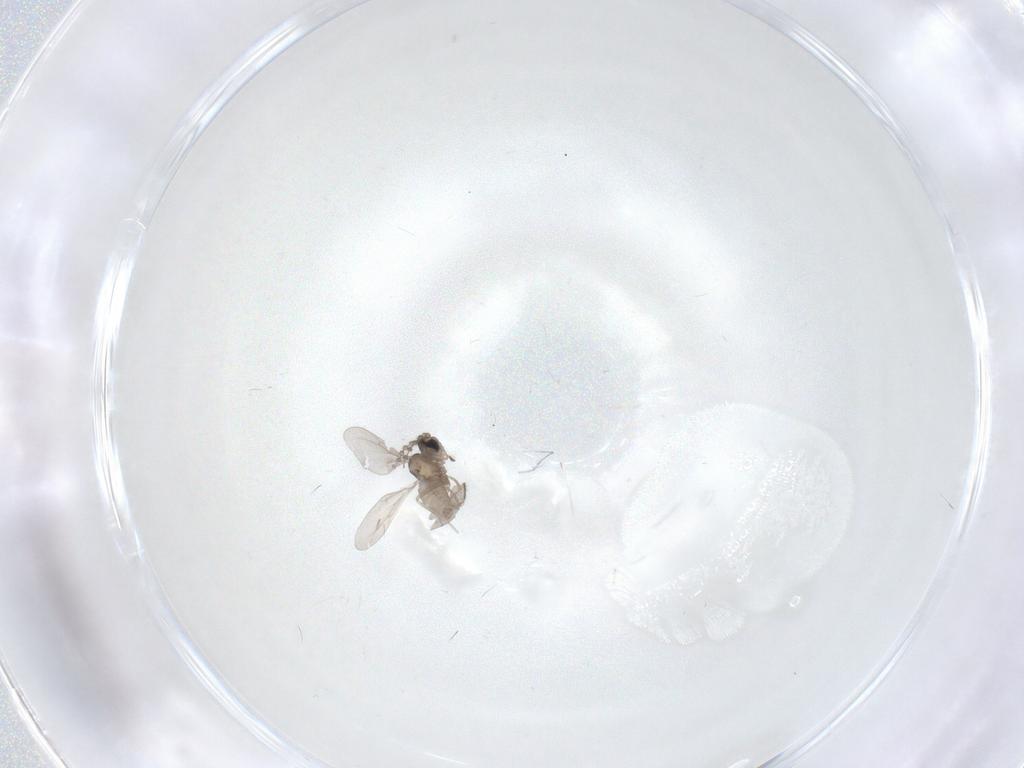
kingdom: Animalia
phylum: Arthropoda
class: Insecta
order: Diptera
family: Cecidomyiidae
